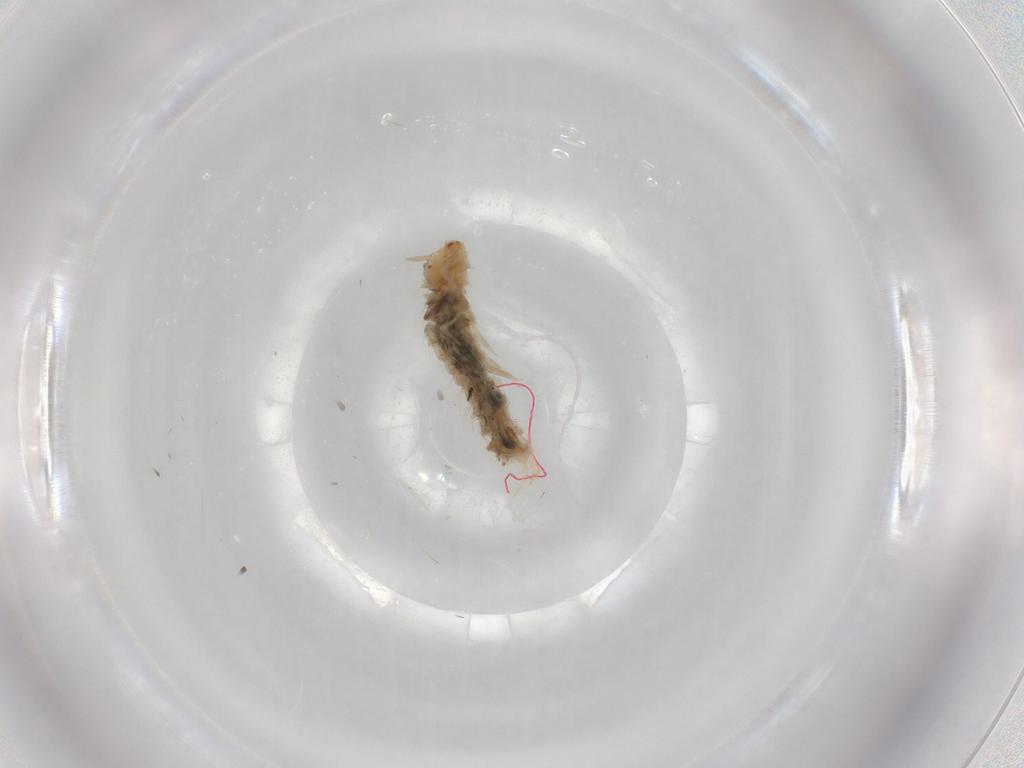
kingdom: Animalia
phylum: Arthropoda
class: Insecta
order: Coleoptera
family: Phalacridae
